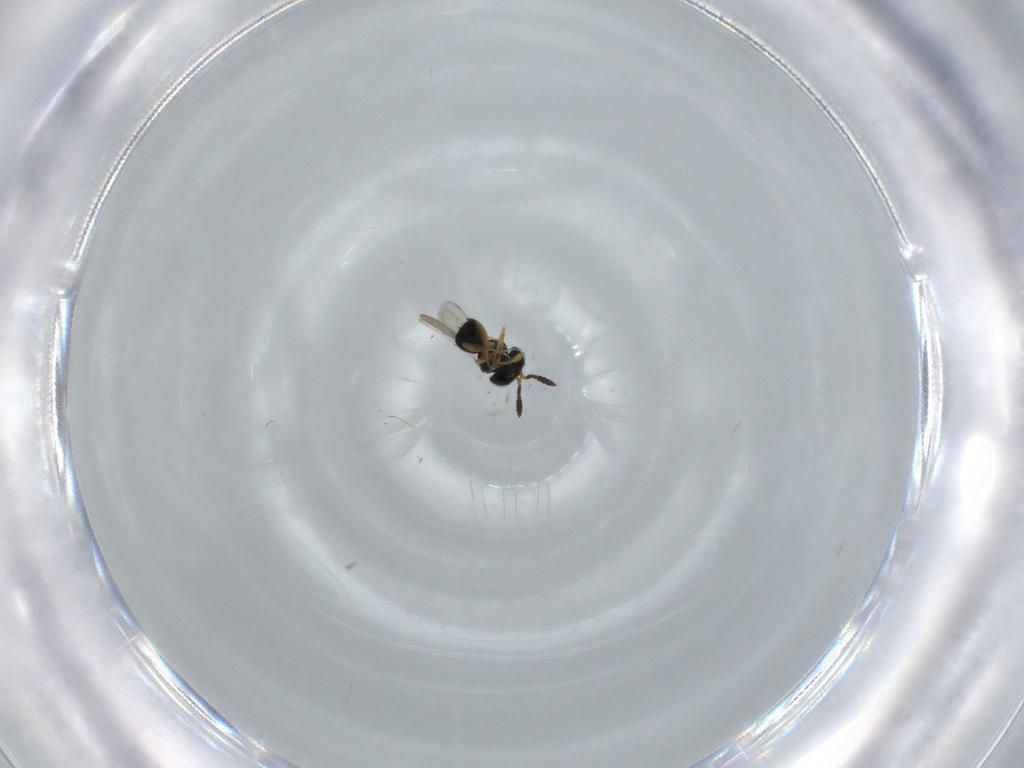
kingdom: Animalia
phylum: Arthropoda
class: Insecta
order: Hymenoptera
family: Scelionidae
